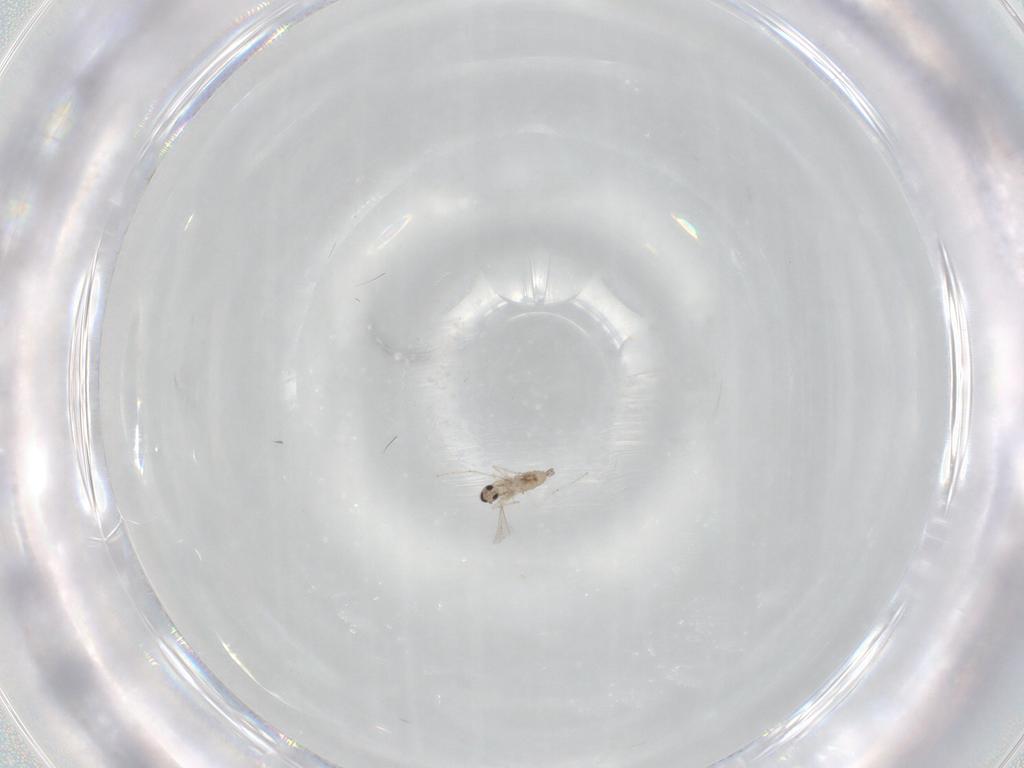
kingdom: Animalia
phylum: Arthropoda
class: Insecta
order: Diptera
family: Cecidomyiidae
